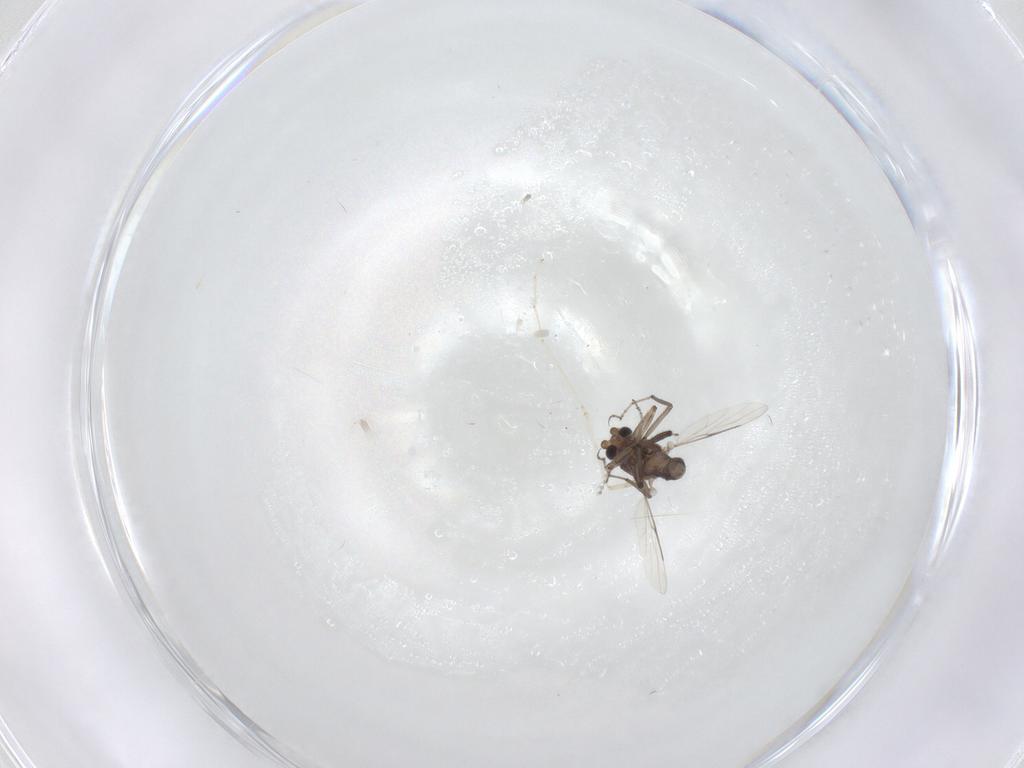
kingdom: Animalia
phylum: Arthropoda
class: Insecta
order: Diptera
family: Ceratopogonidae
